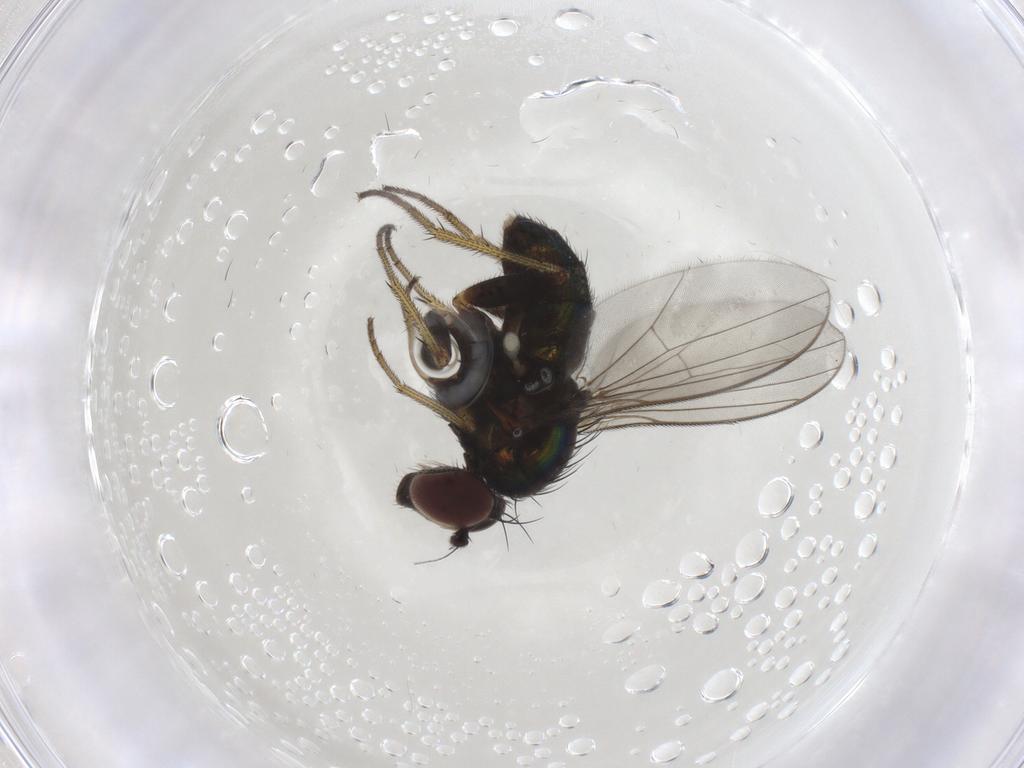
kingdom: Animalia
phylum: Arthropoda
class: Insecta
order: Diptera
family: Dolichopodidae
